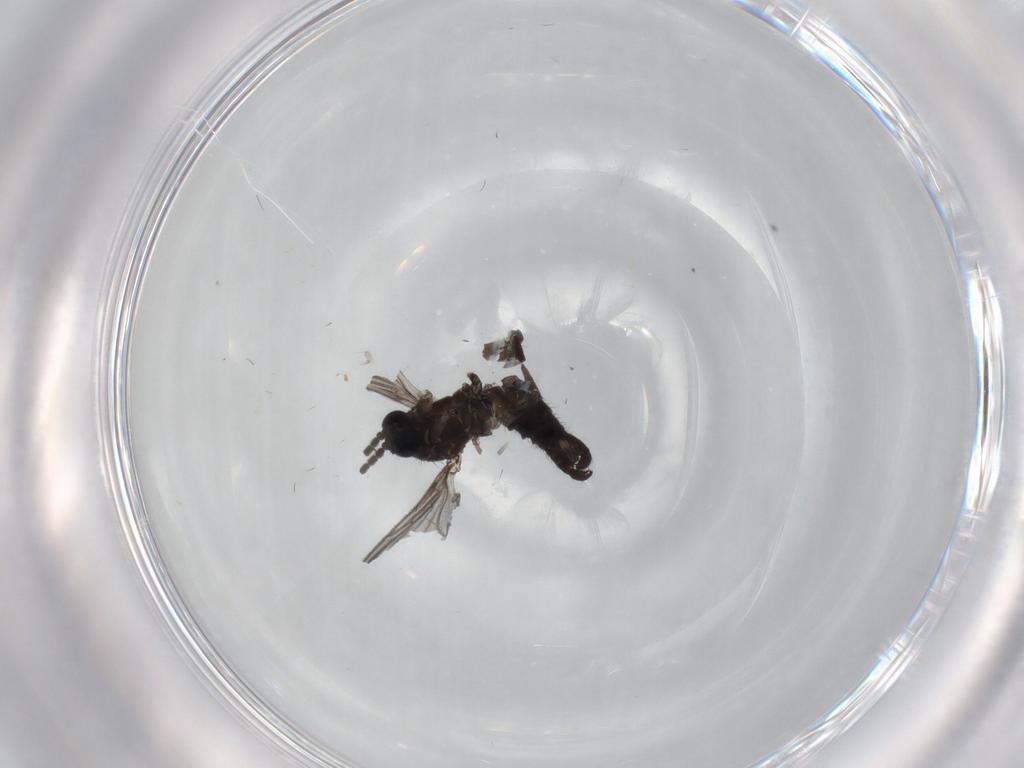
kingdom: Animalia
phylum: Arthropoda
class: Insecta
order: Diptera
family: Sciaridae
